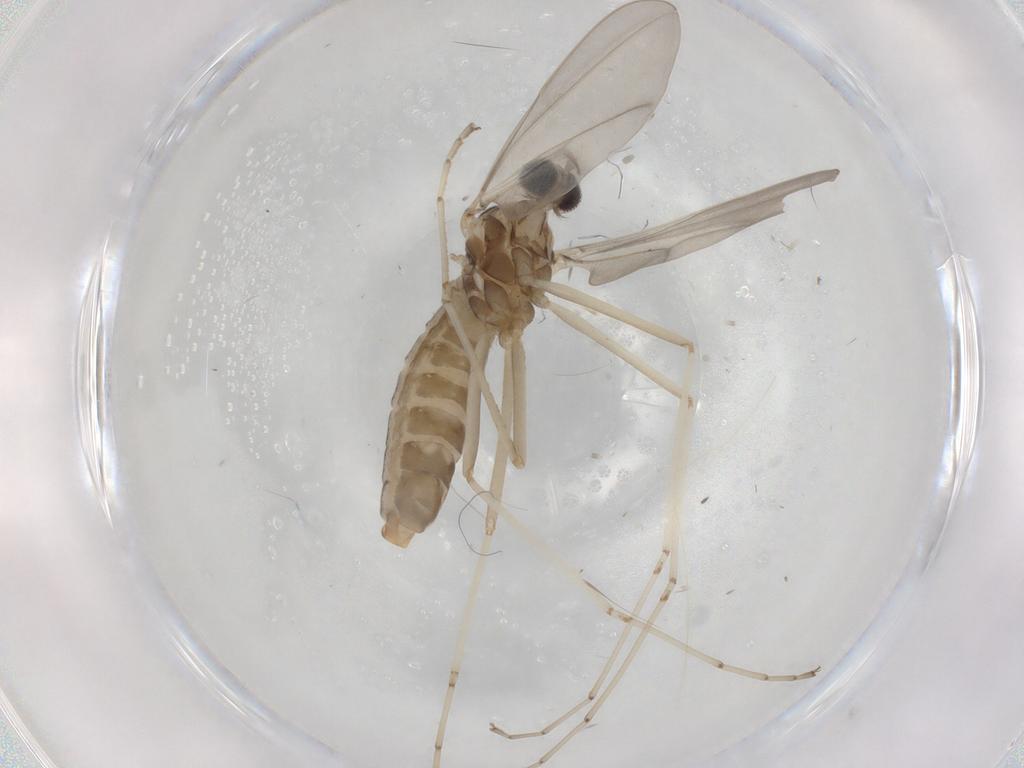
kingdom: Animalia
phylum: Arthropoda
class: Insecta
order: Diptera
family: Cecidomyiidae
